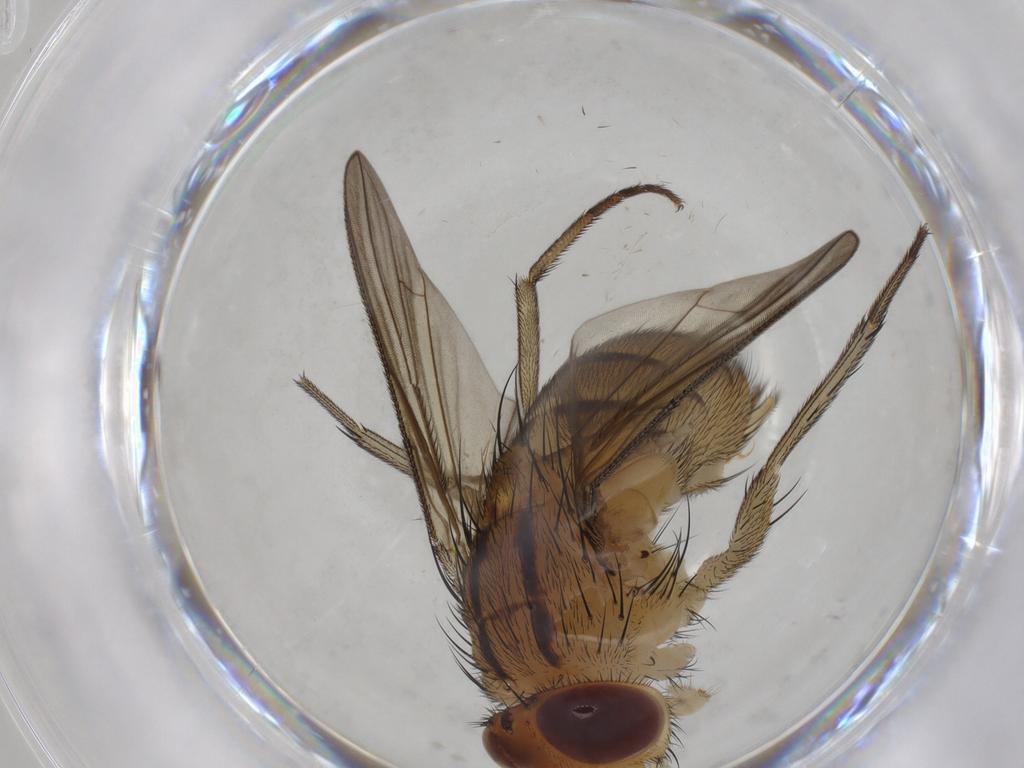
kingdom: Animalia
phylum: Arthropoda
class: Insecta
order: Diptera
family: Calliphoridae
